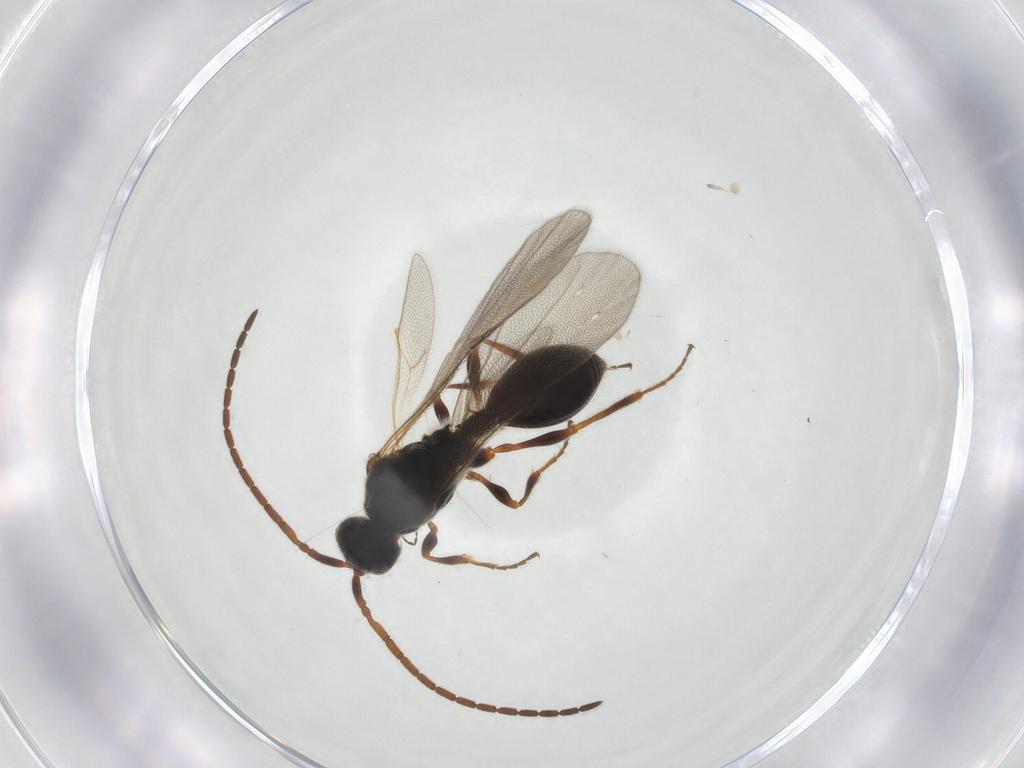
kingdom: Animalia
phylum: Arthropoda
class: Insecta
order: Hymenoptera
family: Diapriidae
